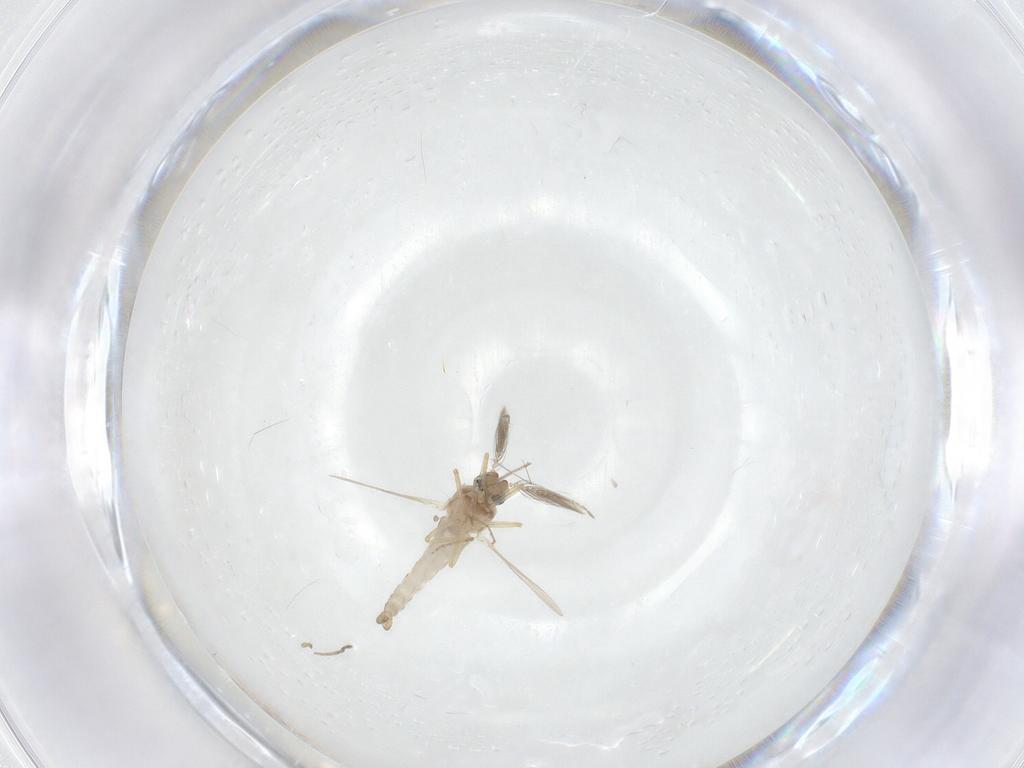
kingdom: Animalia
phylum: Arthropoda
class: Insecta
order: Diptera
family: Ceratopogonidae
